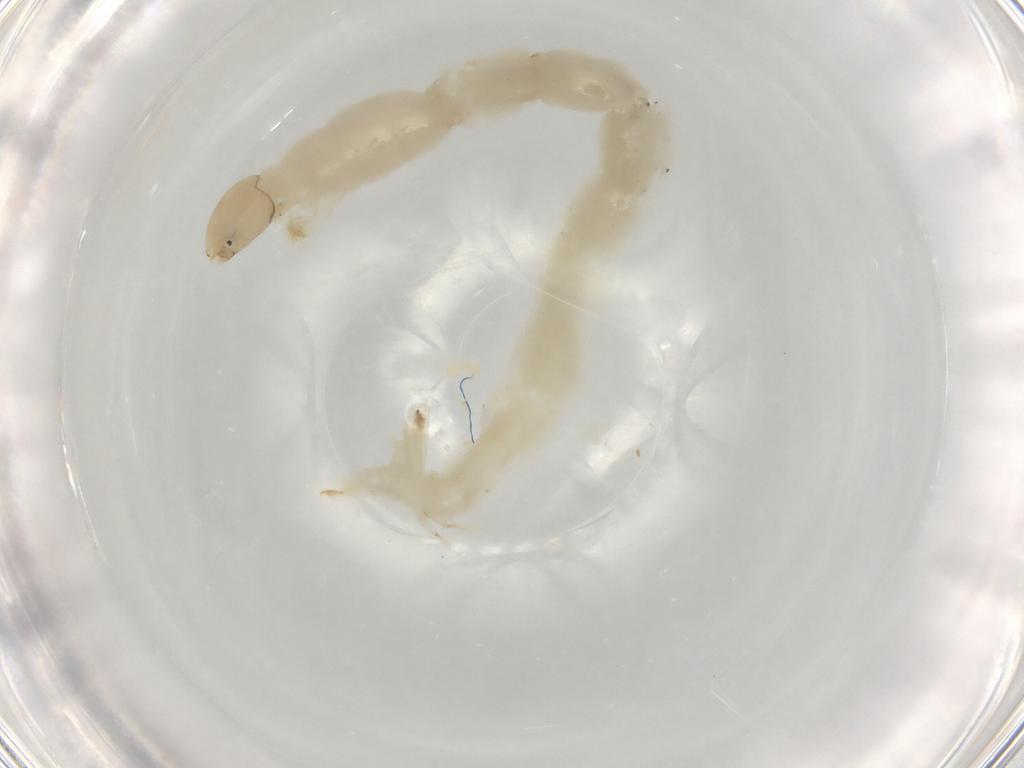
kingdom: Animalia
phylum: Arthropoda
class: Insecta
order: Diptera
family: Chironomidae
